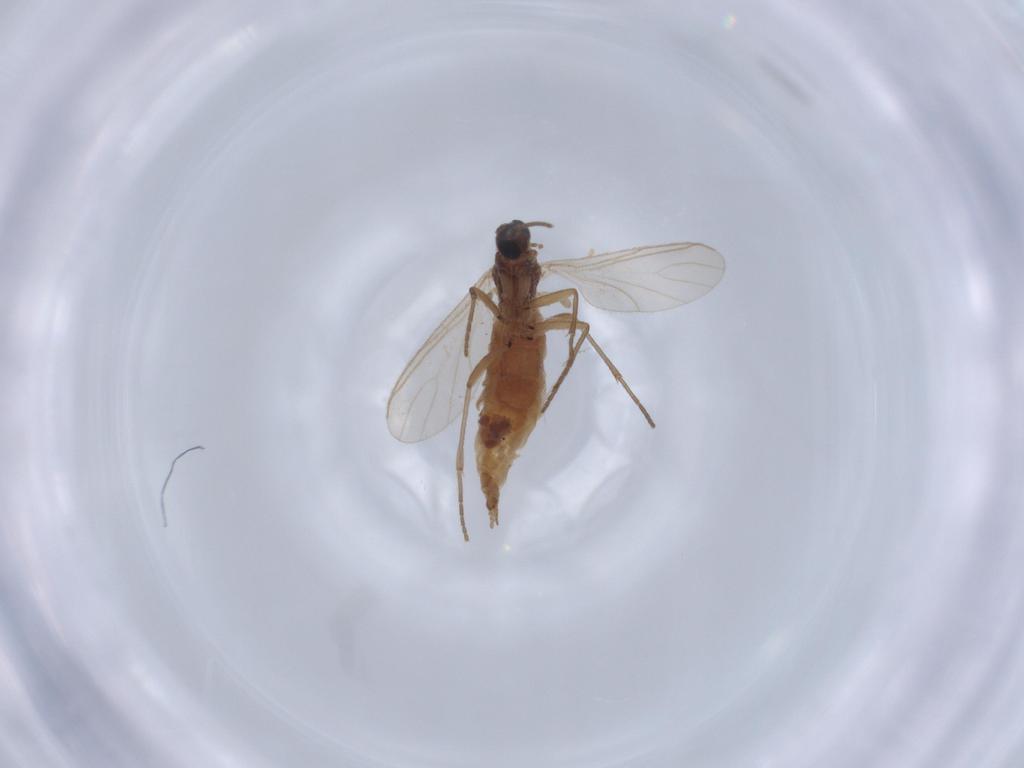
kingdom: Animalia
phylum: Arthropoda
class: Insecta
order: Diptera
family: Sciaridae
